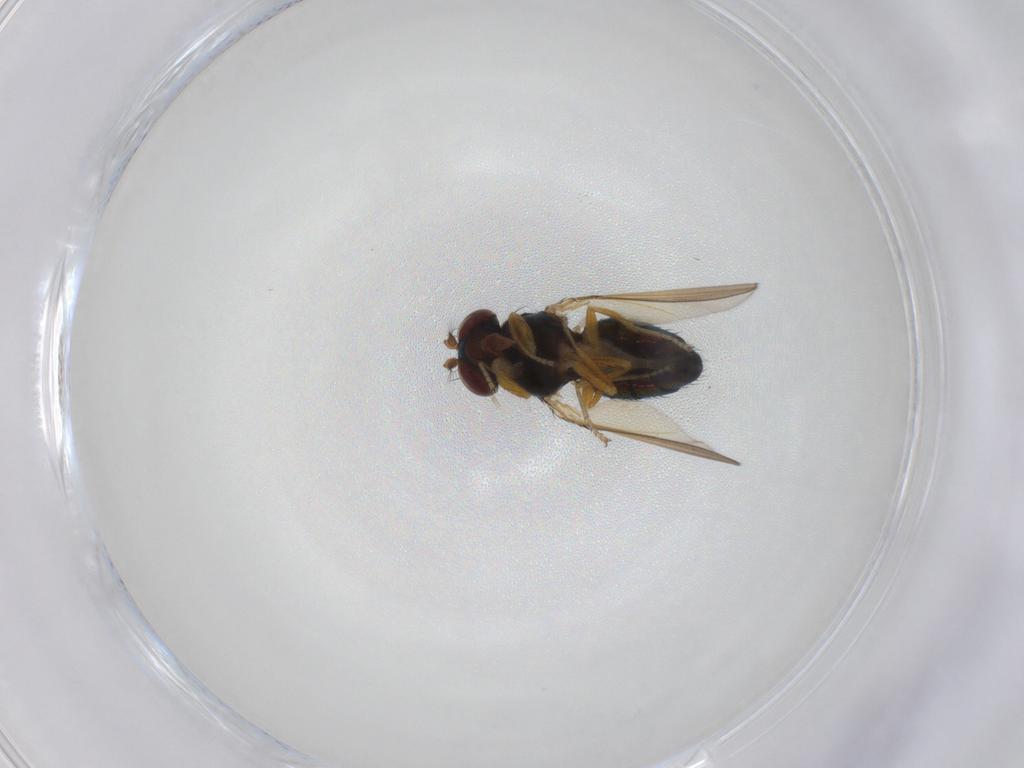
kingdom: Animalia
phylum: Arthropoda
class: Insecta
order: Diptera
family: Ephydridae
